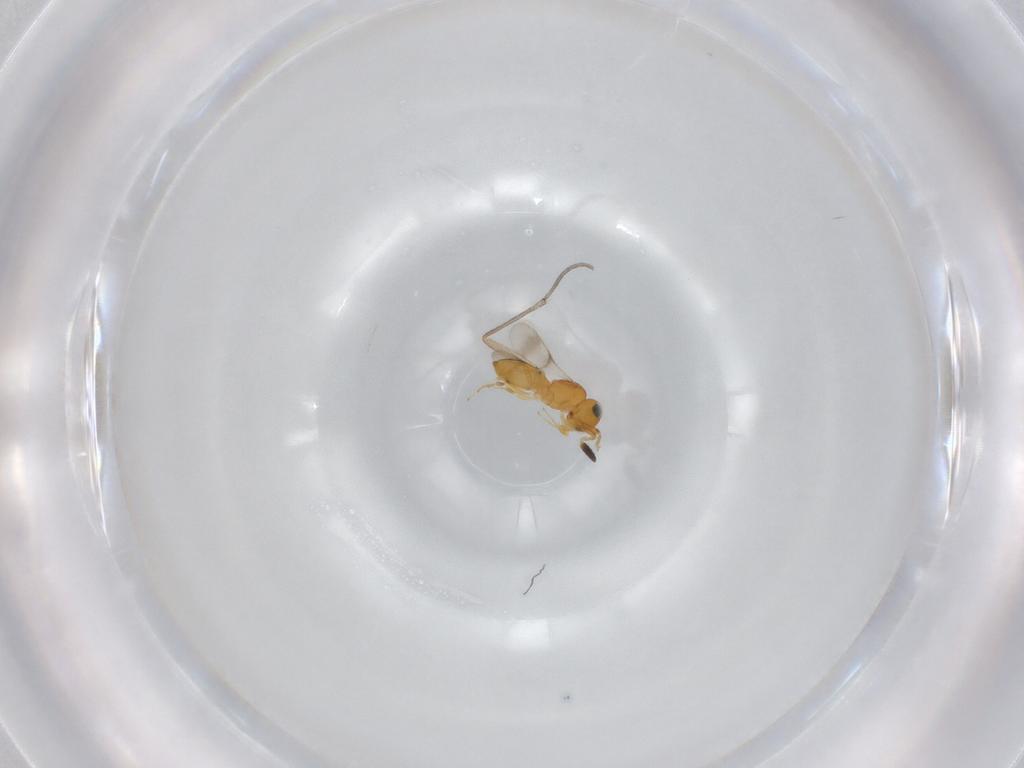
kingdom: Animalia
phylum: Arthropoda
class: Insecta
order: Hymenoptera
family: Scelionidae
